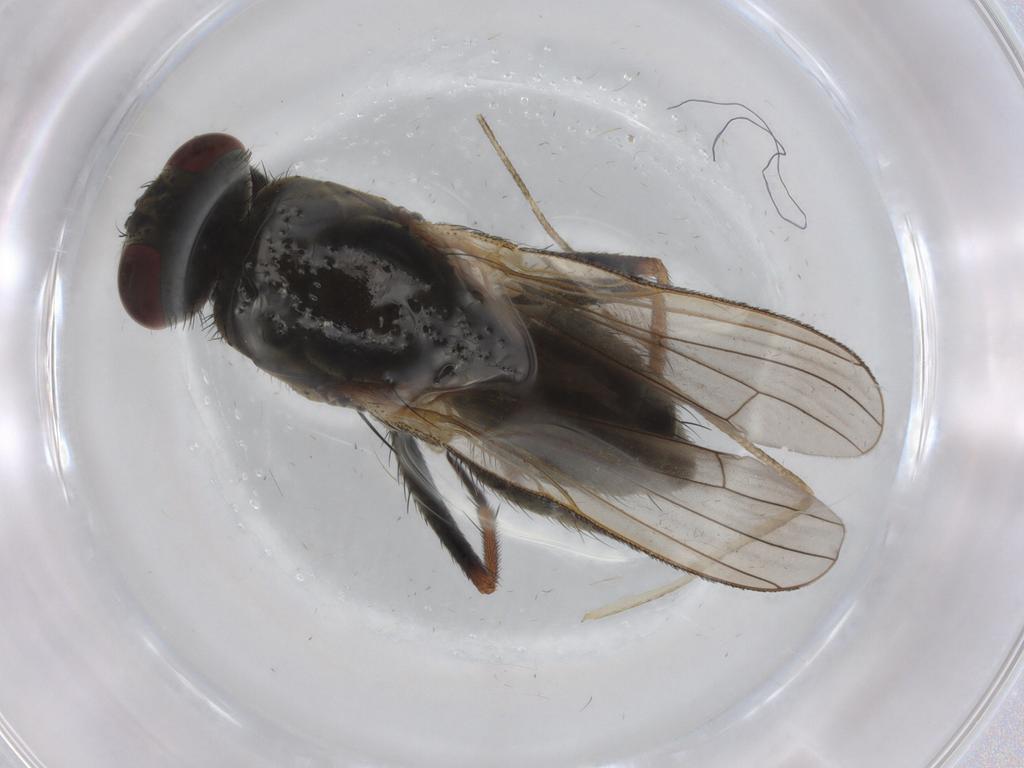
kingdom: Animalia
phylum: Arthropoda
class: Insecta
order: Diptera
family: Muscidae
